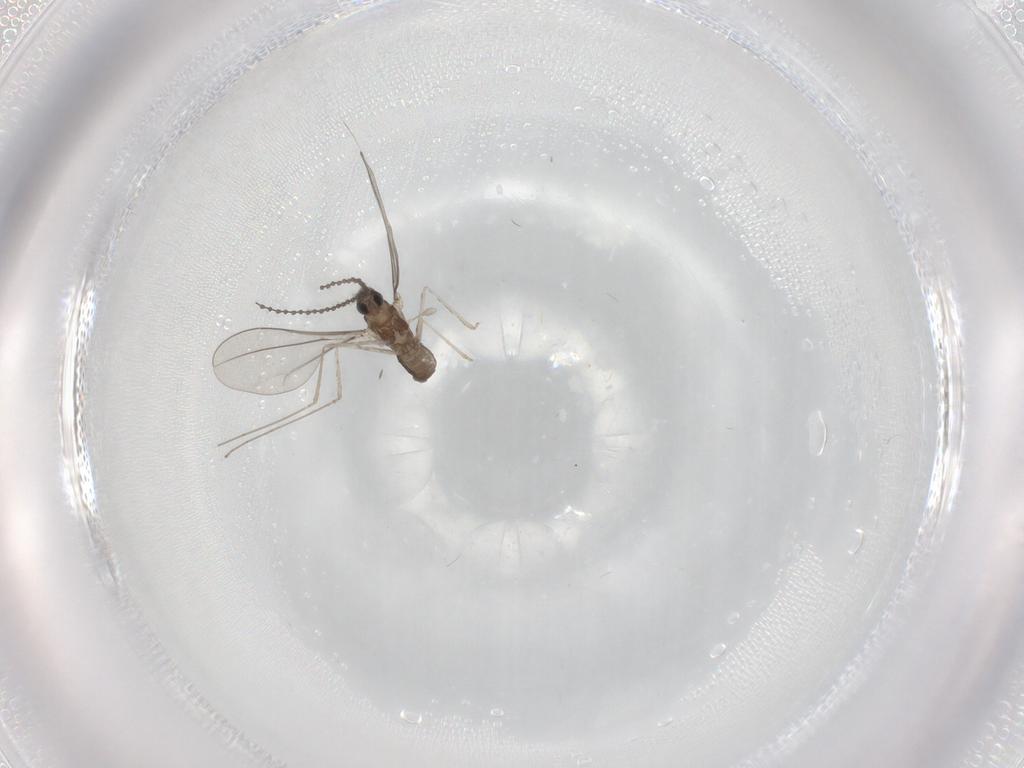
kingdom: Animalia
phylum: Arthropoda
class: Insecta
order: Diptera
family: Cecidomyiidae
